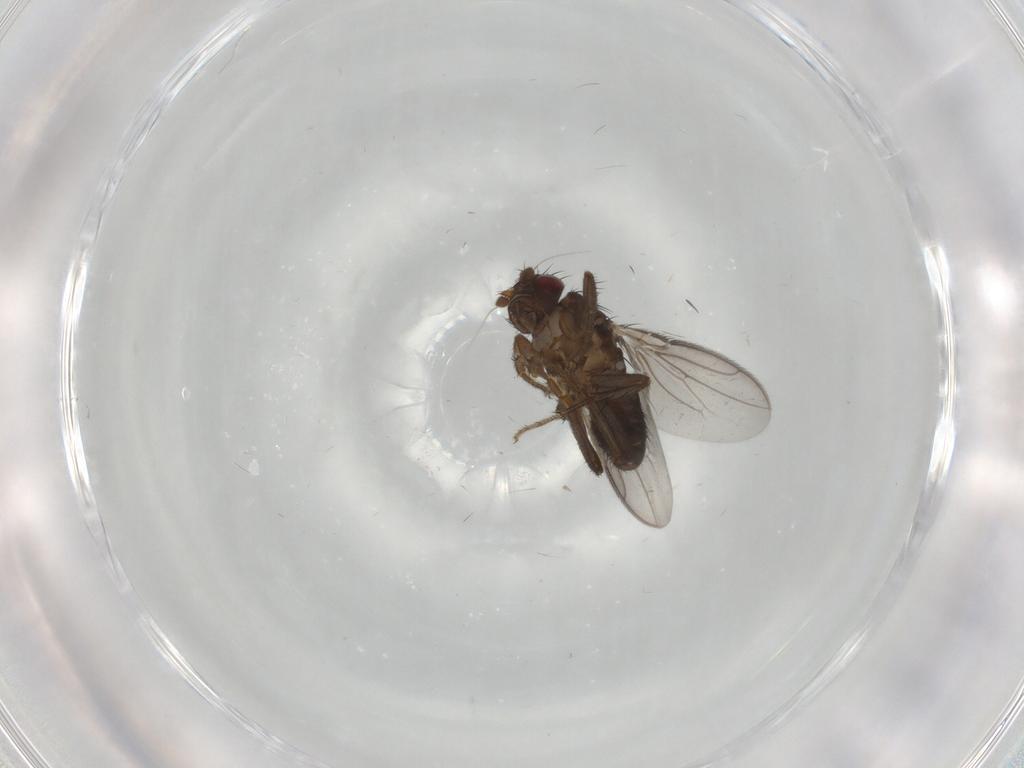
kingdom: Animalia
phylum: Arthropoda
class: Insecta
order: Diptera
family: Sphaeroceridae
